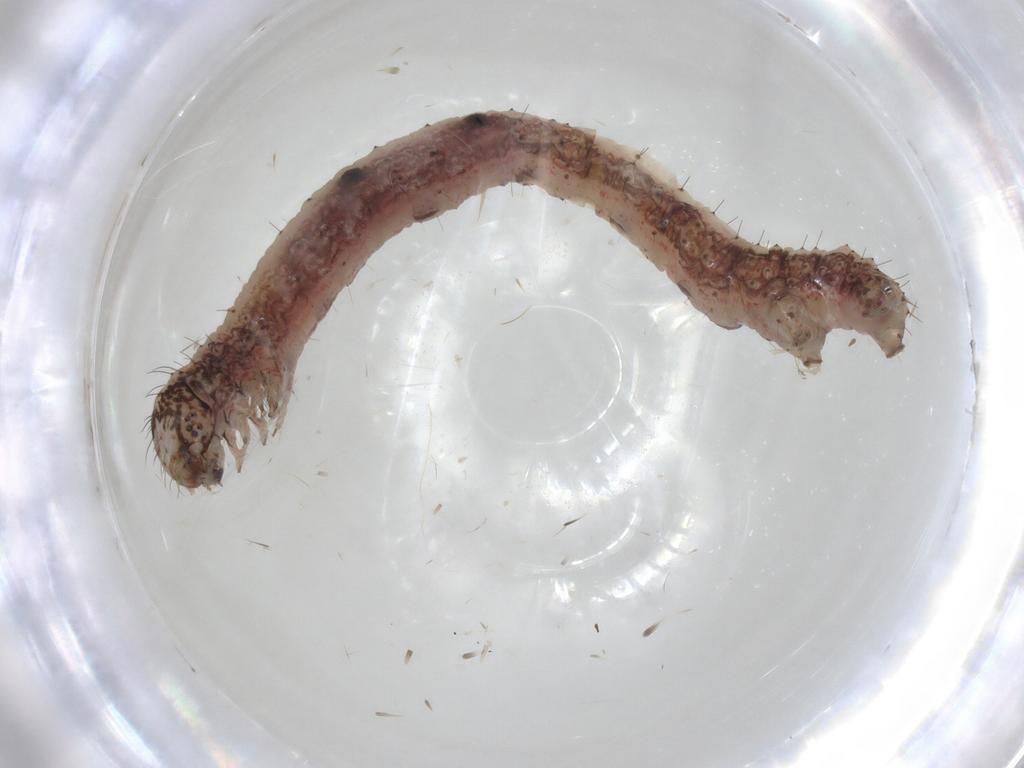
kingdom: Animalia
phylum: Arthropoda
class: Insecta
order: Lepidoptera
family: Geometridae
